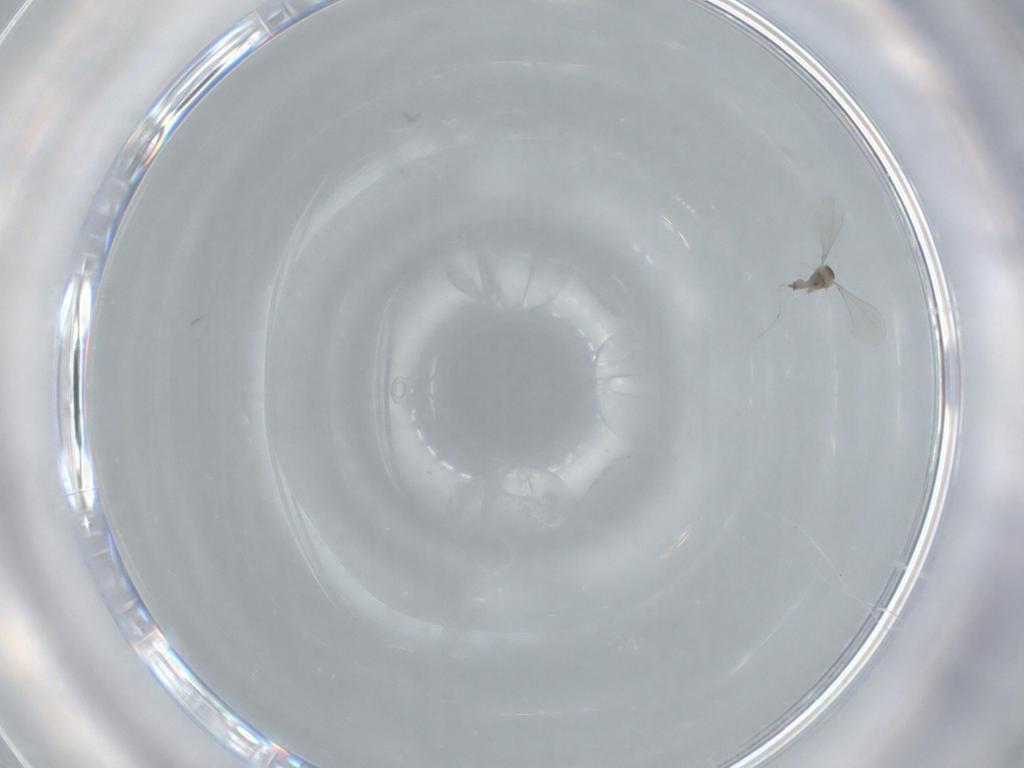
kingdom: Animalia
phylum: Arthropoda
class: Insecta
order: Diptera
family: Cecidomyiidae
